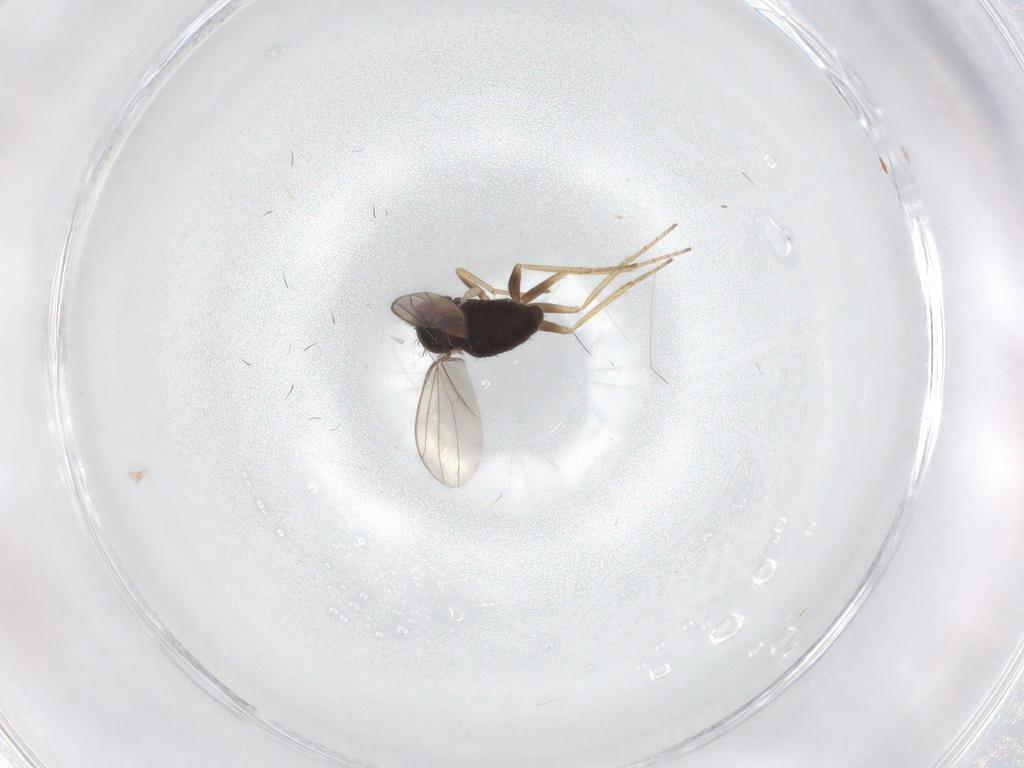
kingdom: Animalia
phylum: Arthropoda
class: Insecta
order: Diptera
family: Dolichopodidae
